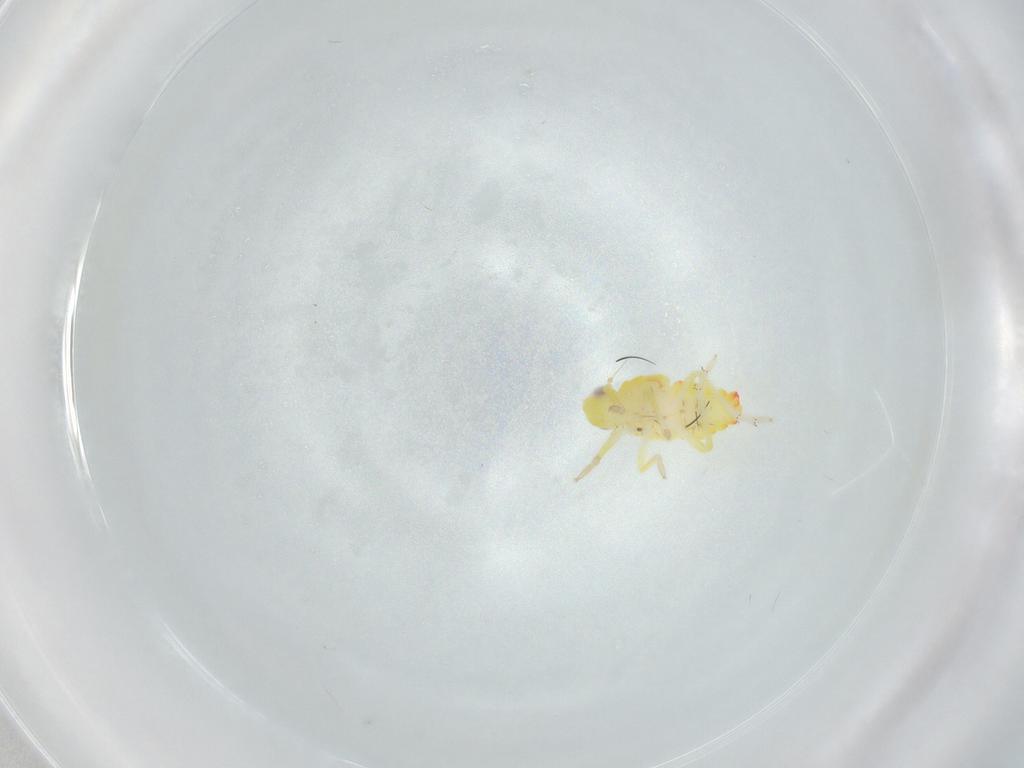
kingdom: Animalia
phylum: Arthropoda
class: Insecta
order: Hemiptera
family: Tropiduchidae
